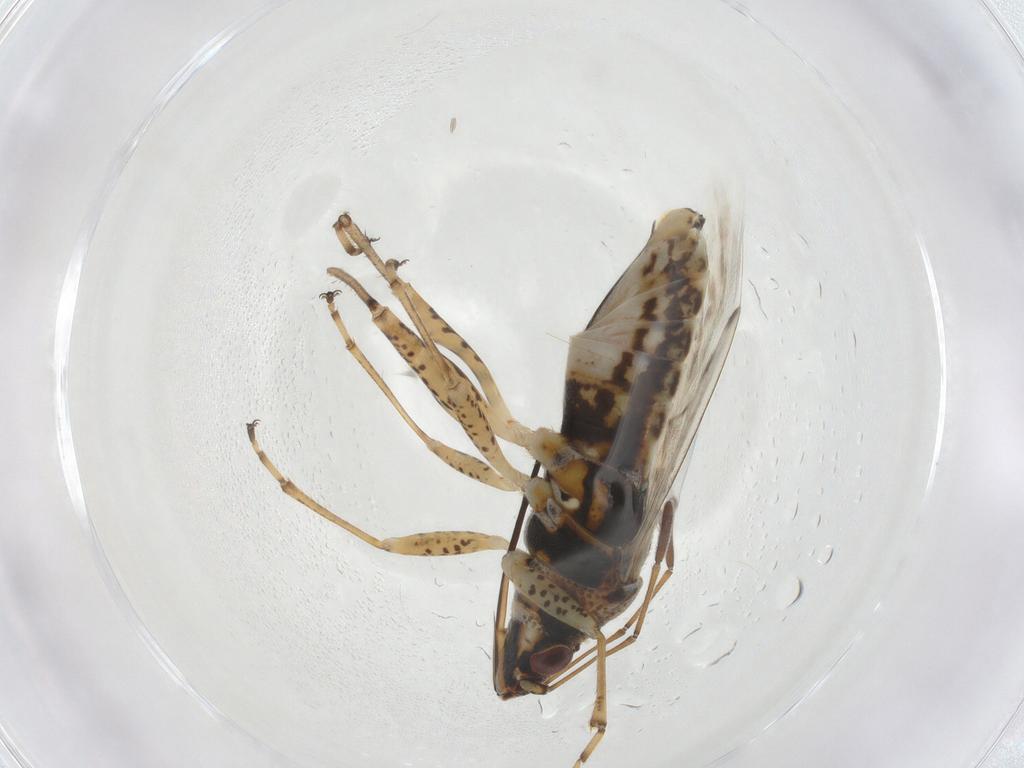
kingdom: Animalia
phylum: Arthropoda
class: Insecta
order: Hemiptera
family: Lygaeidae
